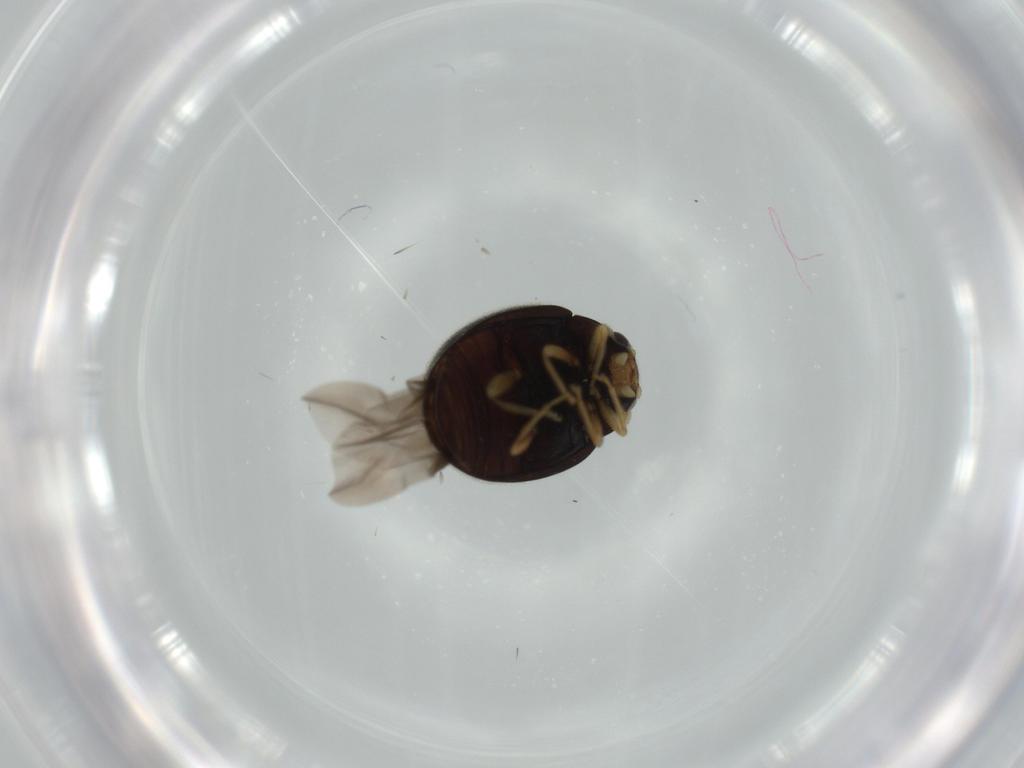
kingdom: Animalia
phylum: Arthropoda
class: Insecta
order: Coleoptera
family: Coccinellidae
